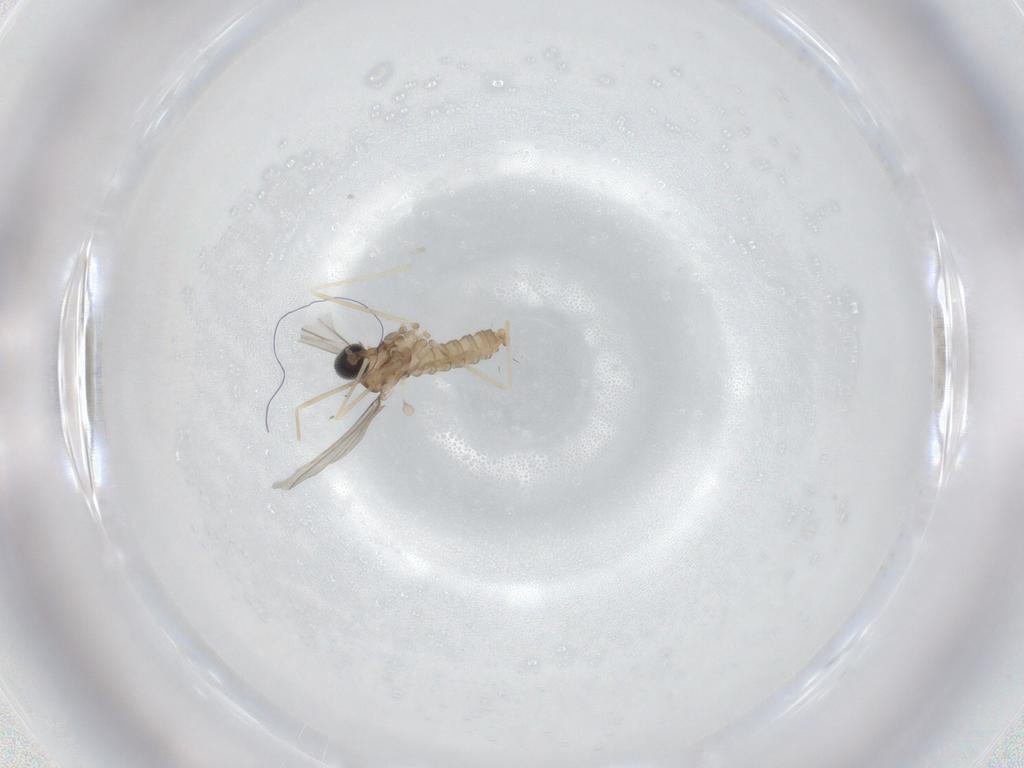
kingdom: Animalia
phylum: Arthropoda
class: Insecta
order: Diptera
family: Cecidomyiidae
